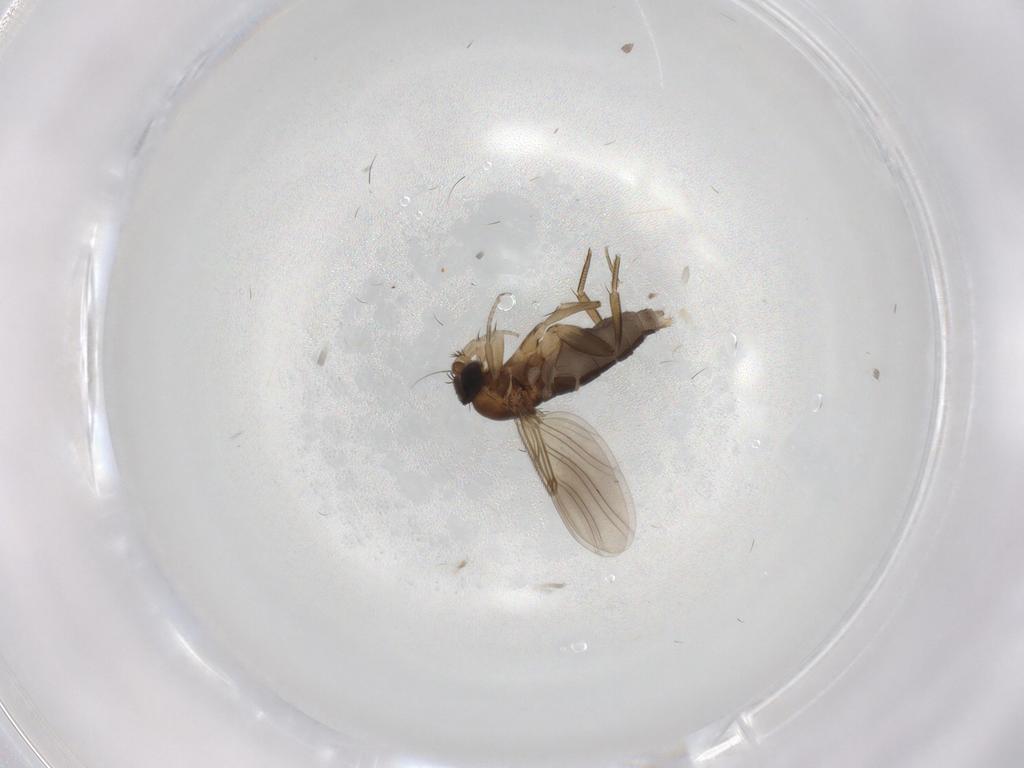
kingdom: Animalia
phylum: Arthropoda
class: Insecta
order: Diptera
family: Phoridae
